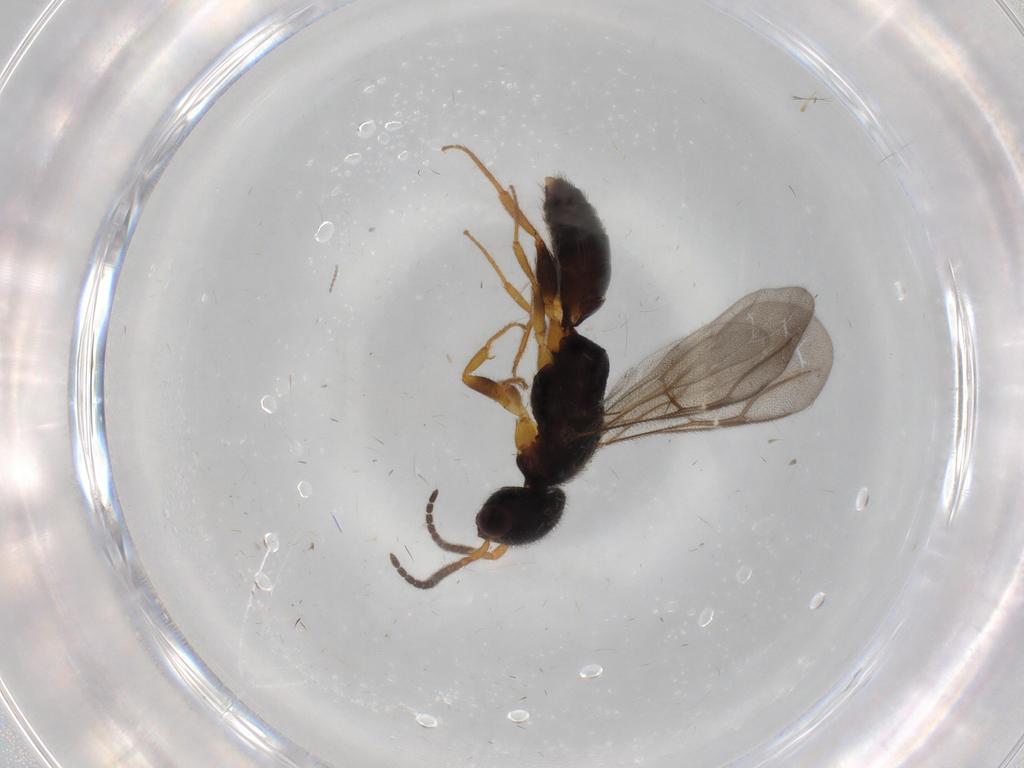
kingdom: Animalia
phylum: Arthropoda
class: Insecta
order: Hymenoptera
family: Bethylidae
